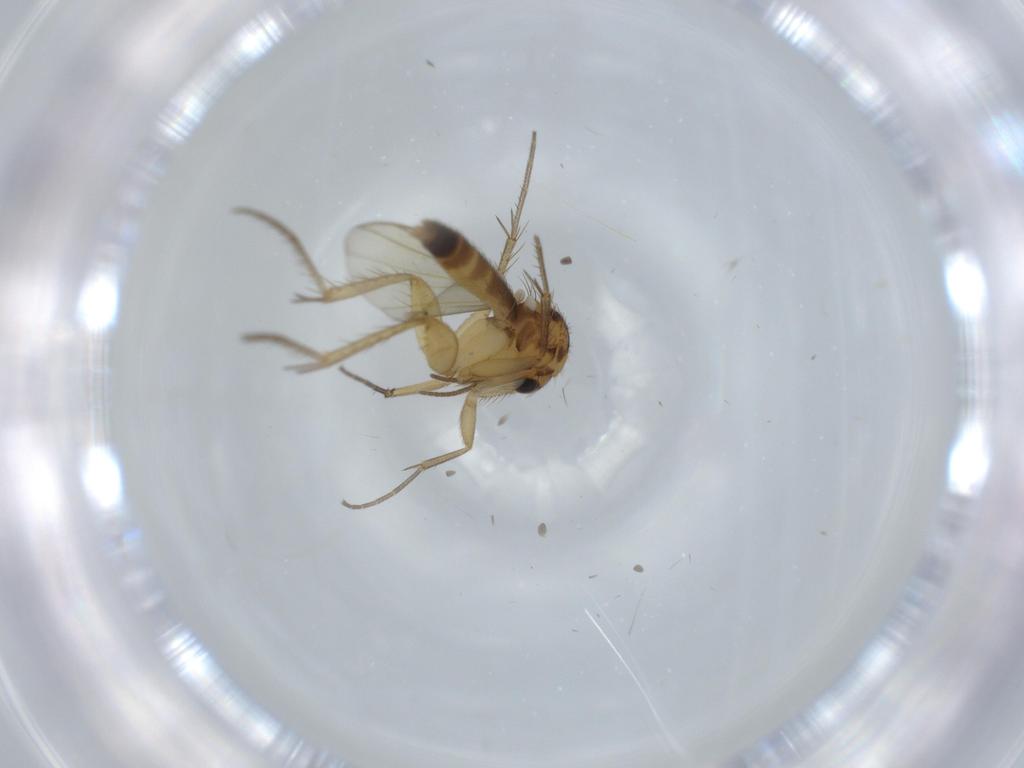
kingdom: Animalia
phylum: Arthropoda
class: Insecta
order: Diptera
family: Mycetophilidae
